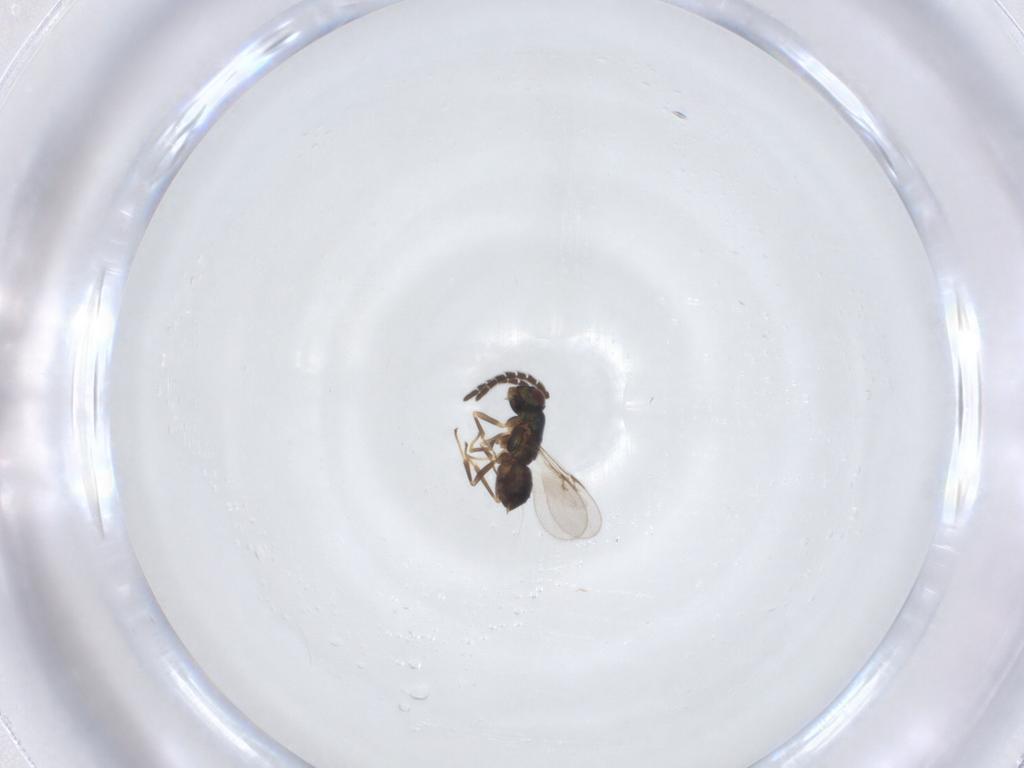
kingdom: Animalia
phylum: Arthropoda
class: Insecta
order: Hymenoptera
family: Encyrtidae
